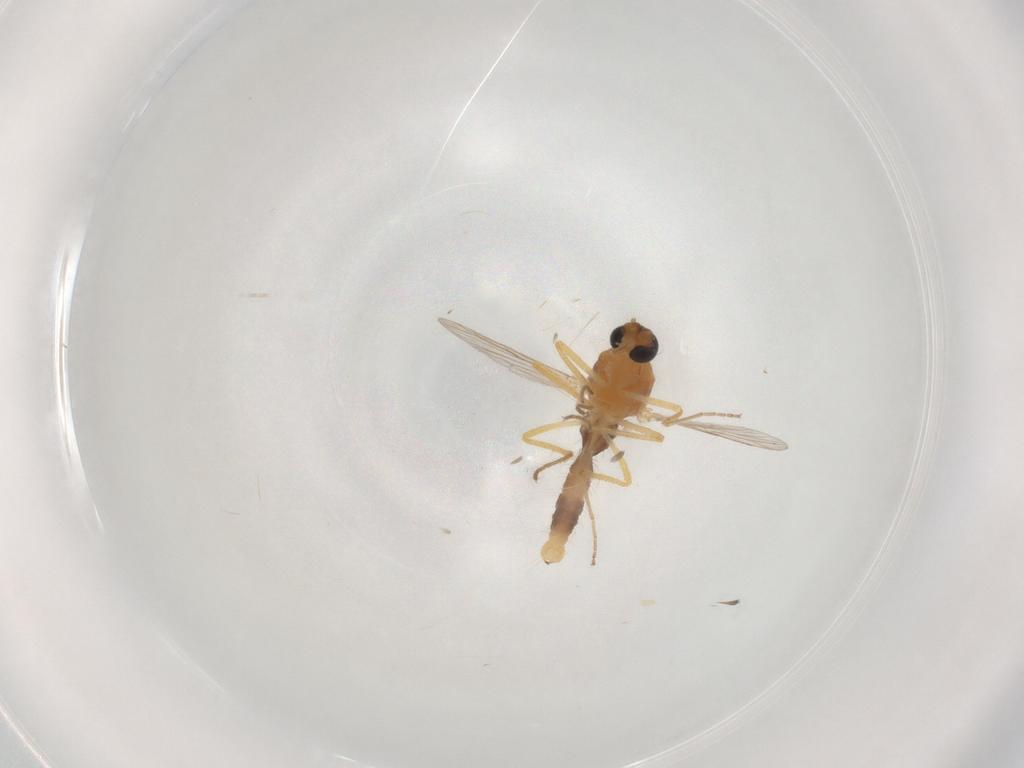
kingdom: Animalia
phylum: Arthropoda
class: Insecta
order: Diptera
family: Ceratopogonidae
